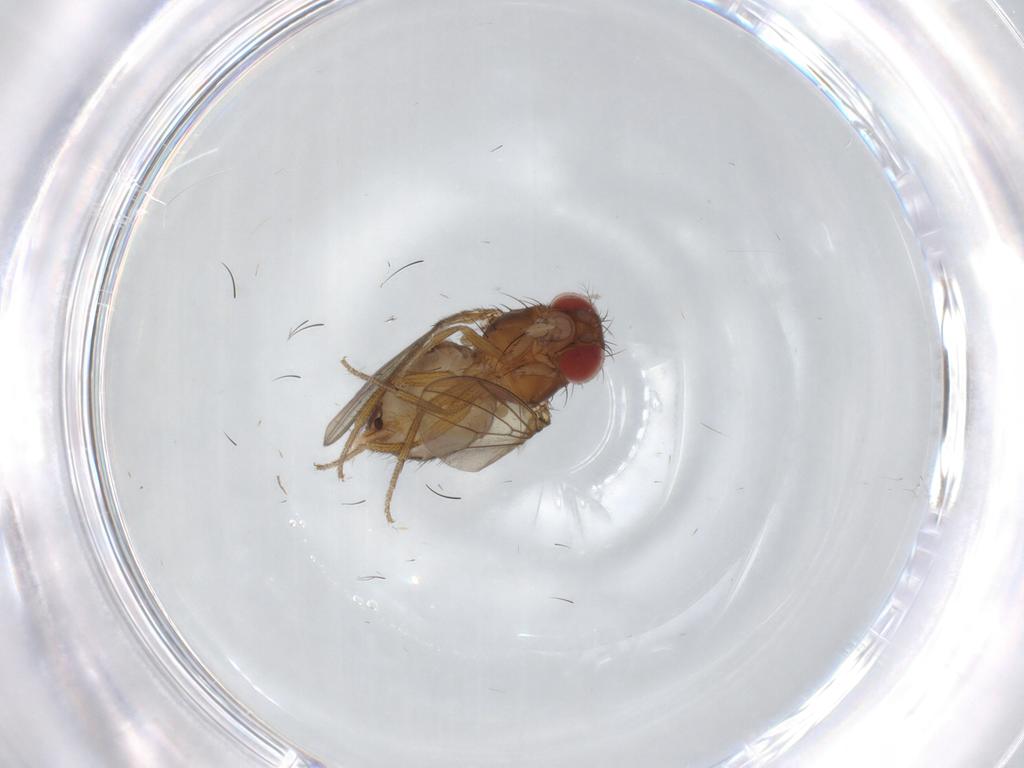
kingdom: Animalia
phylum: Arthropoda
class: Insecta
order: Diptera
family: Drosophilidae
